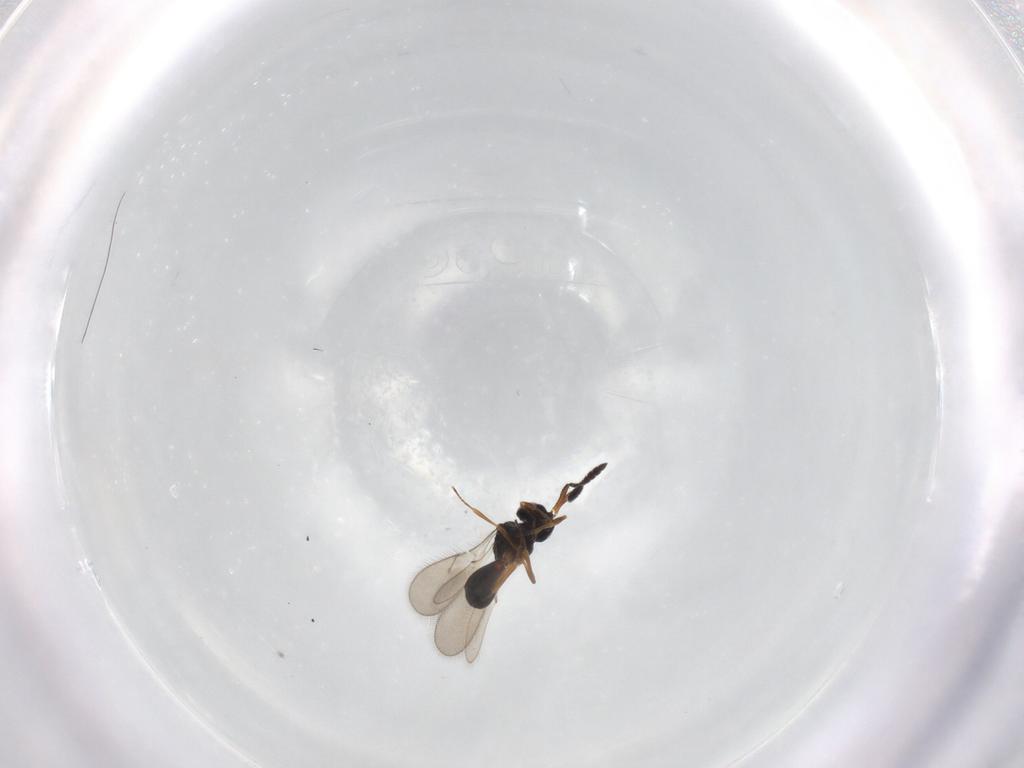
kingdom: Animalia
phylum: Arthropoda
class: Insecta
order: Hymenoptera
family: Scelionidae
